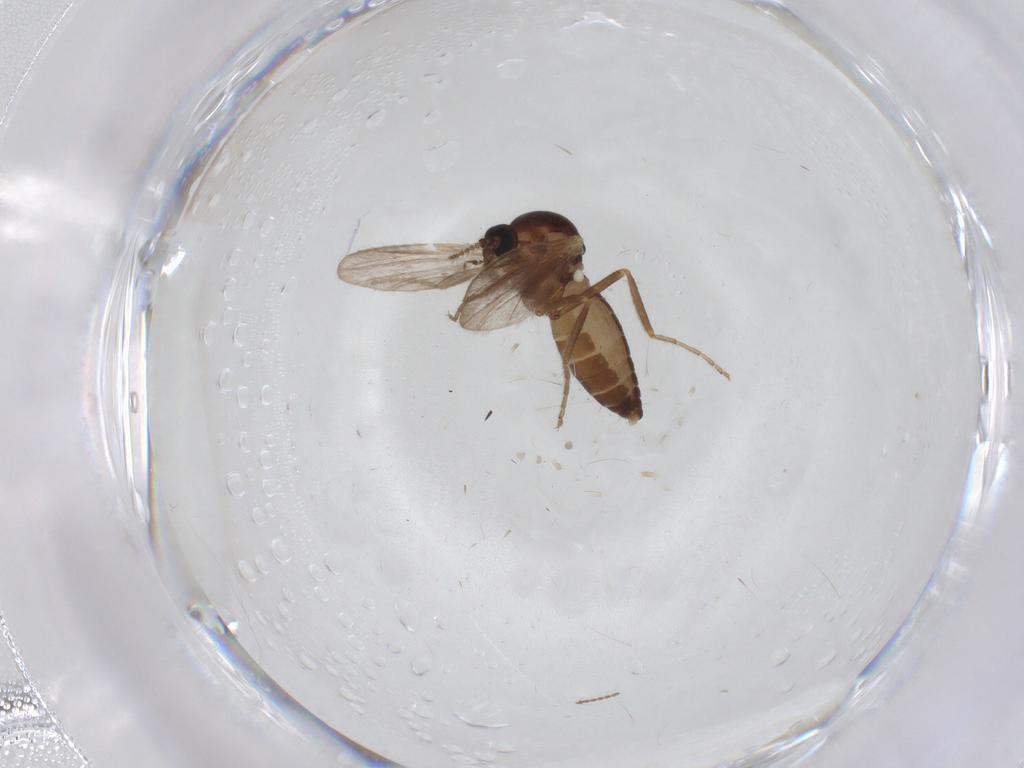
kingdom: Animalia
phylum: Arthropoda
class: Insecta
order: Diptera
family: Ceratopogonidae
